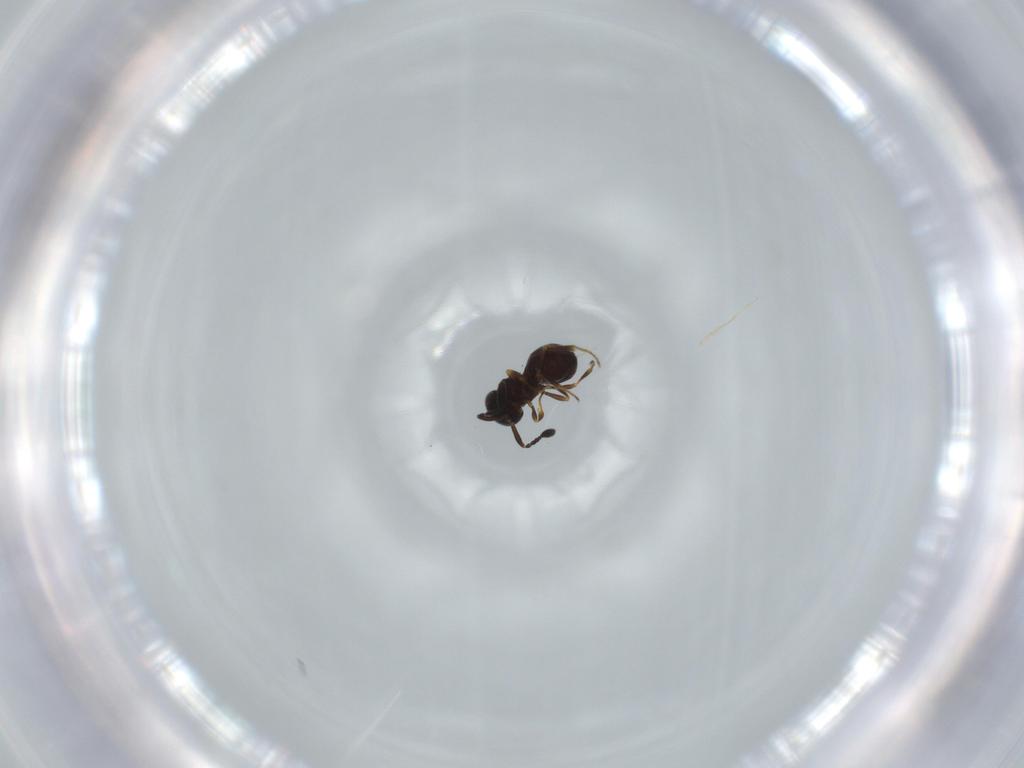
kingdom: Animalia
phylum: Arthropoda
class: Insecta
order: Hymenoptera
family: Scelionidae
